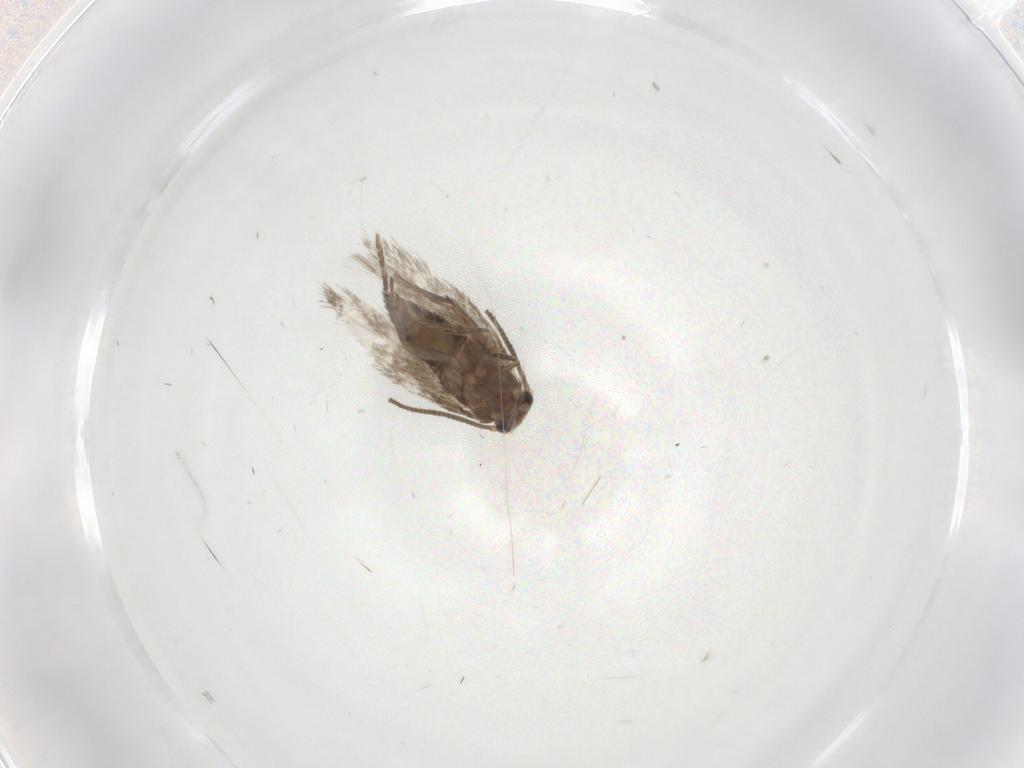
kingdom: Animalia
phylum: Arthropoda
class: Insecta
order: Lepidoptera
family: Nepticulidae
